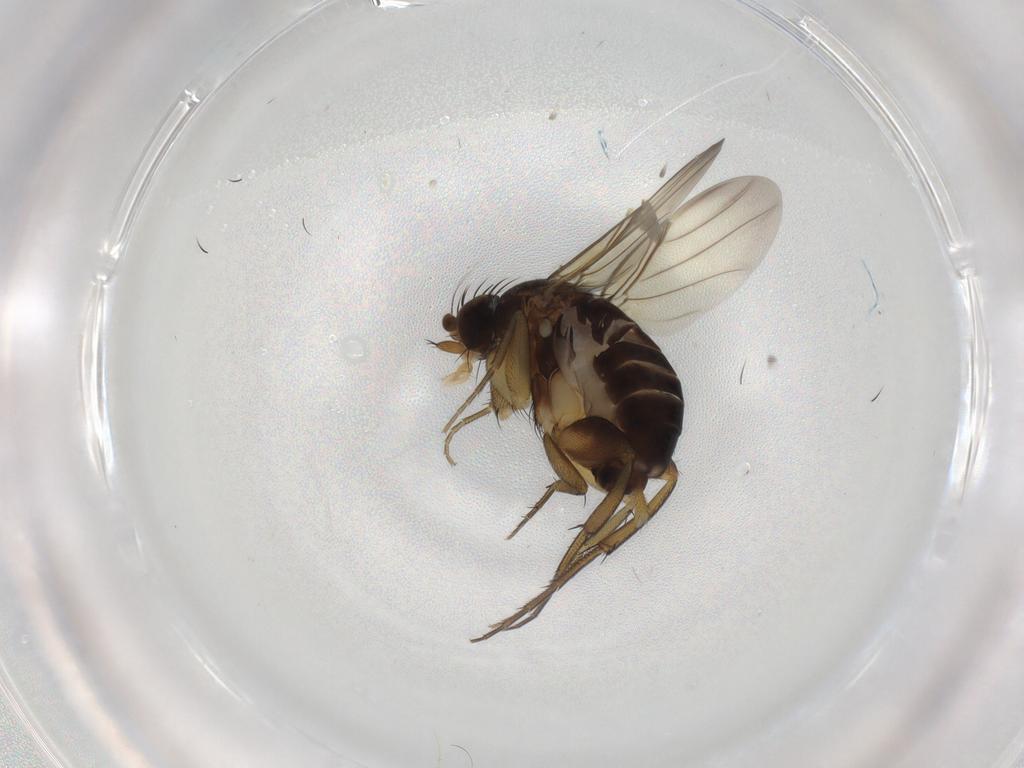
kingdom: Animalia
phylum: Arthropoda
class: Insecta
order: Diptera
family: Phoridae
